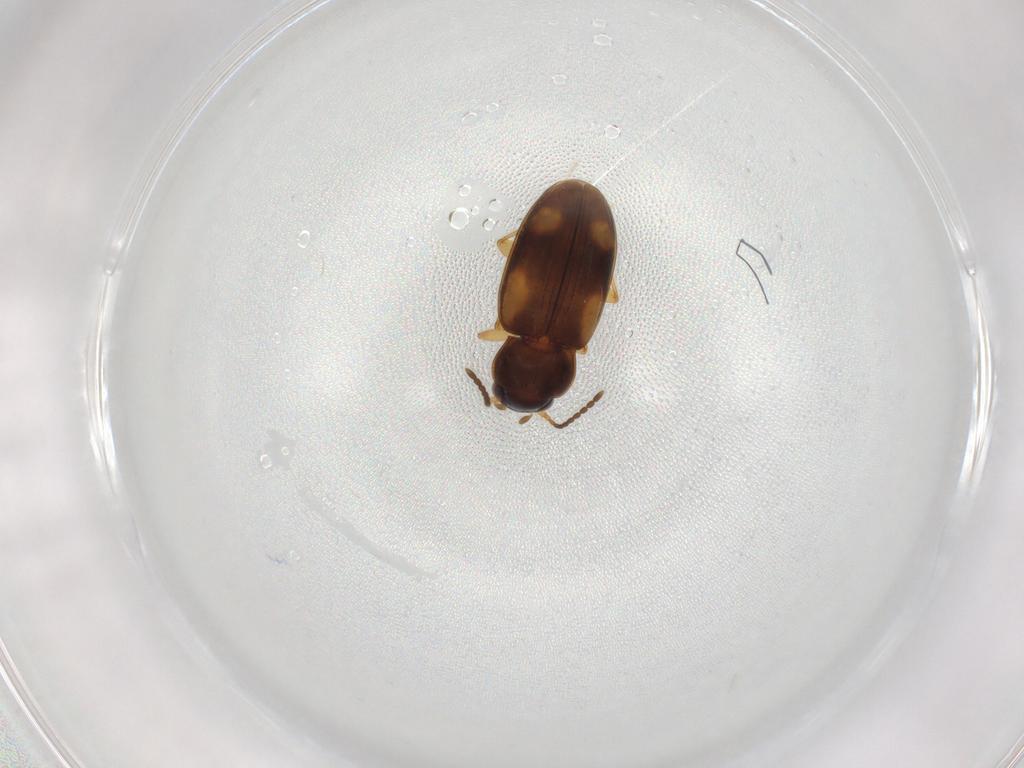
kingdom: Animalia
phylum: Arthropoda
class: Insecta
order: Coleoptera
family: Carabidae
